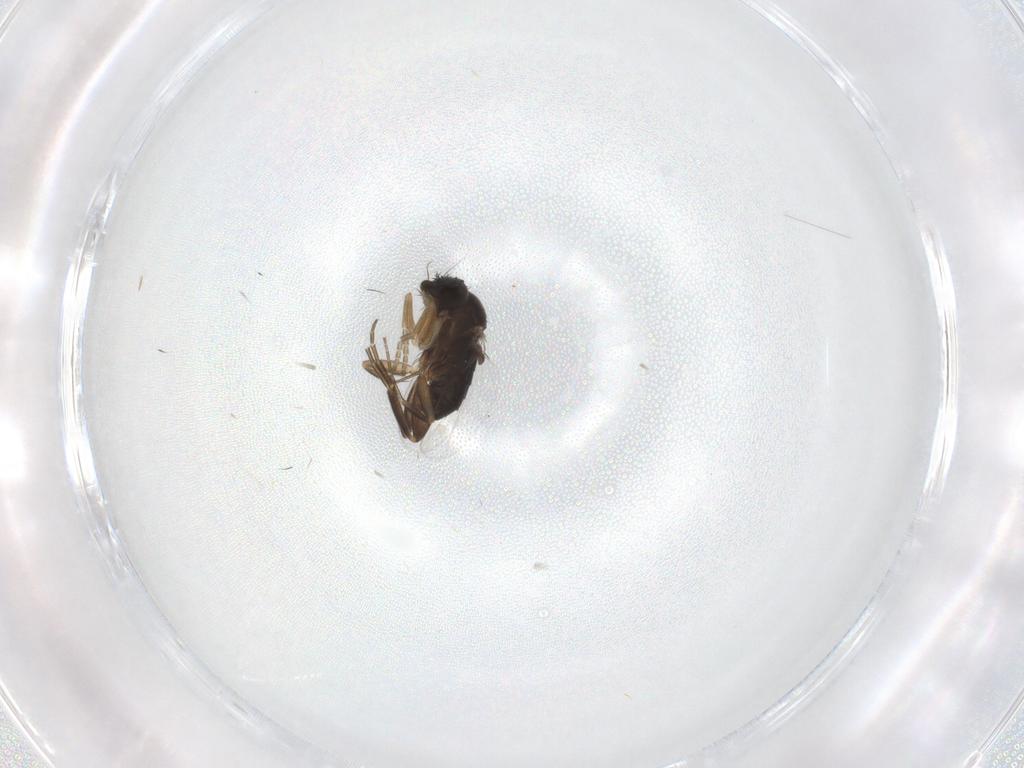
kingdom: Animalia
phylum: Arthropoda
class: Insecta
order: Diptera
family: Phoridae
